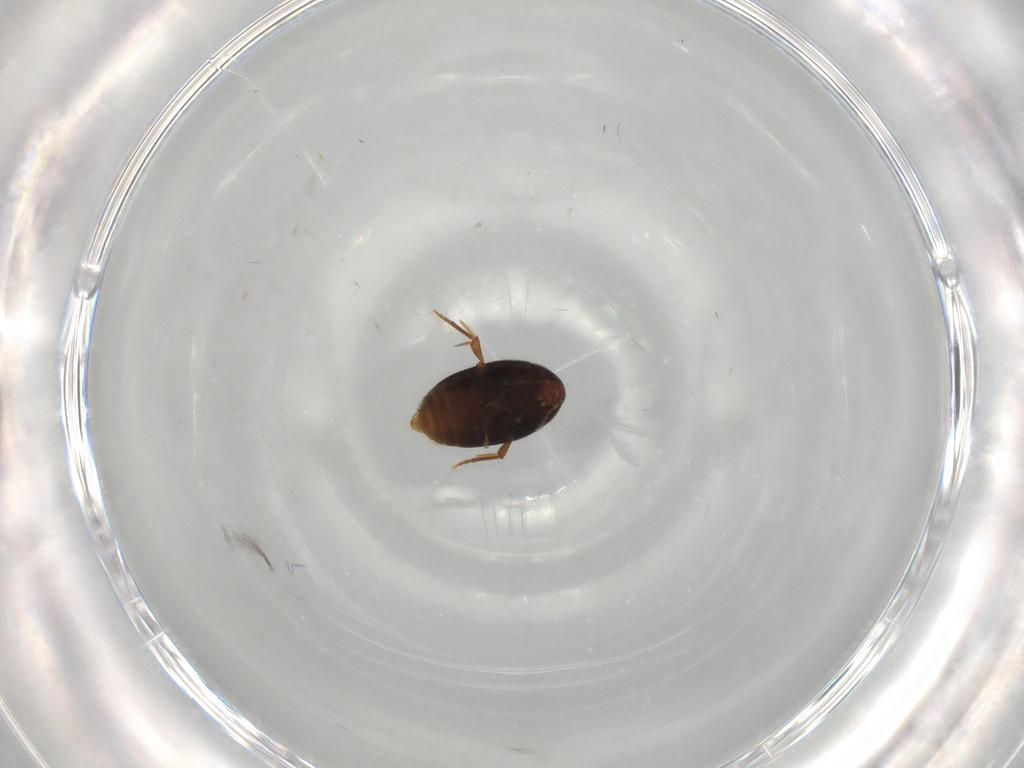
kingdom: Animalia
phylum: Arthropoda
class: Insecta
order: Coleoptera
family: Melandryidae
